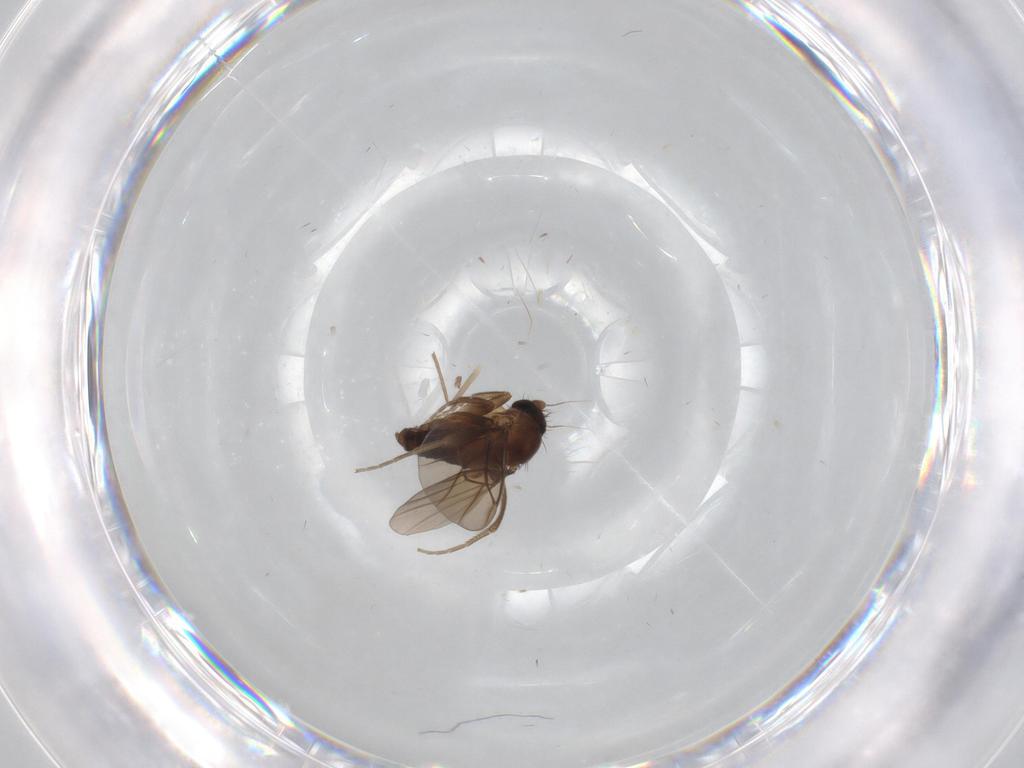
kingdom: Animalia
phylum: Arthropoda
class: Insecta
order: Diptera
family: Limoniidae
